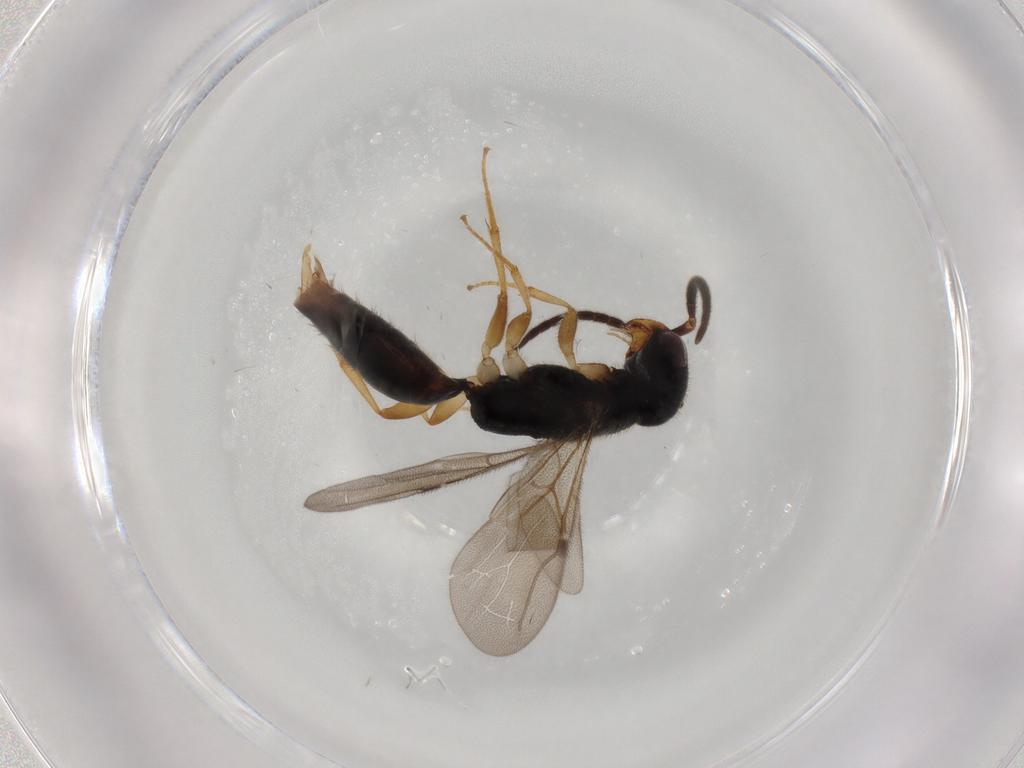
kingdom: Animalia
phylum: Arthropoda
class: Insecta
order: Hymenoptera
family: Bethylidae
